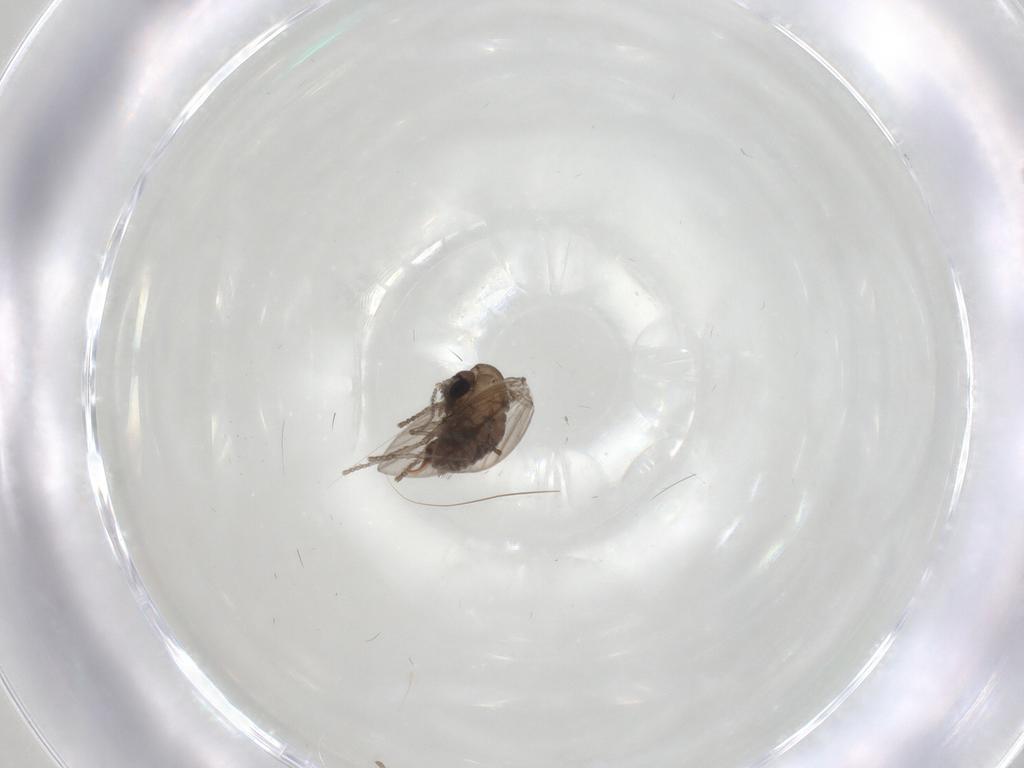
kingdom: Animalia
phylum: Arthropoda
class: Insecta
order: Diptera
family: Psychodidae
